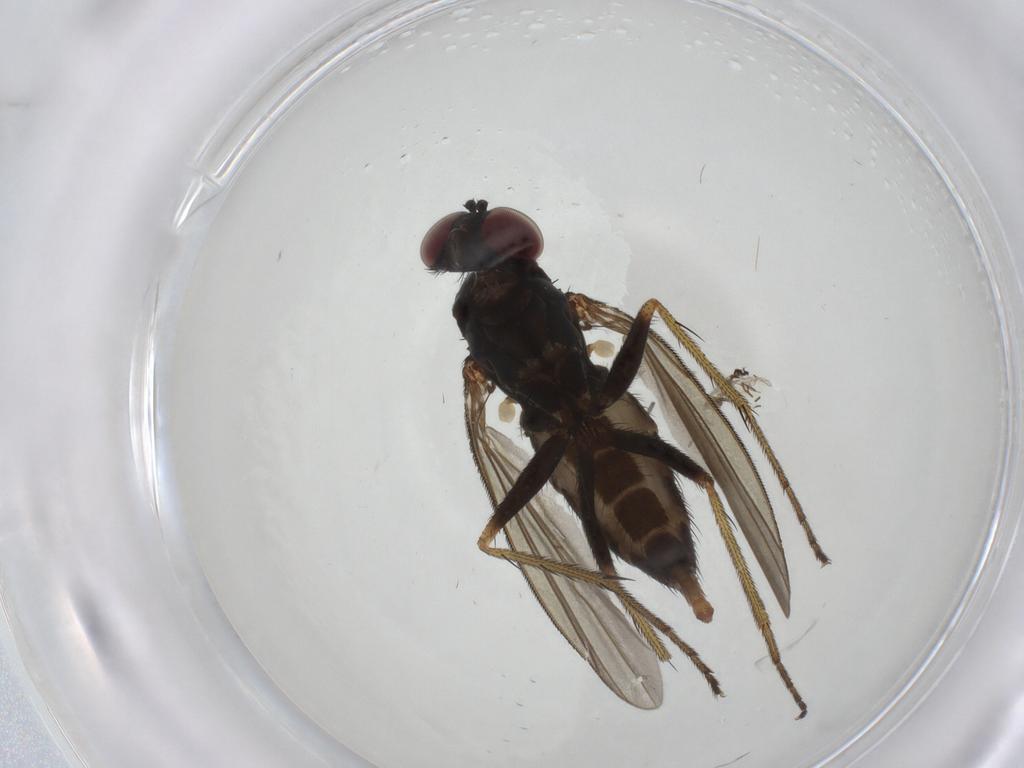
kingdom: Animalia
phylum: Arthropoda
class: Insecta
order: Diptera
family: Dolichopodidae
